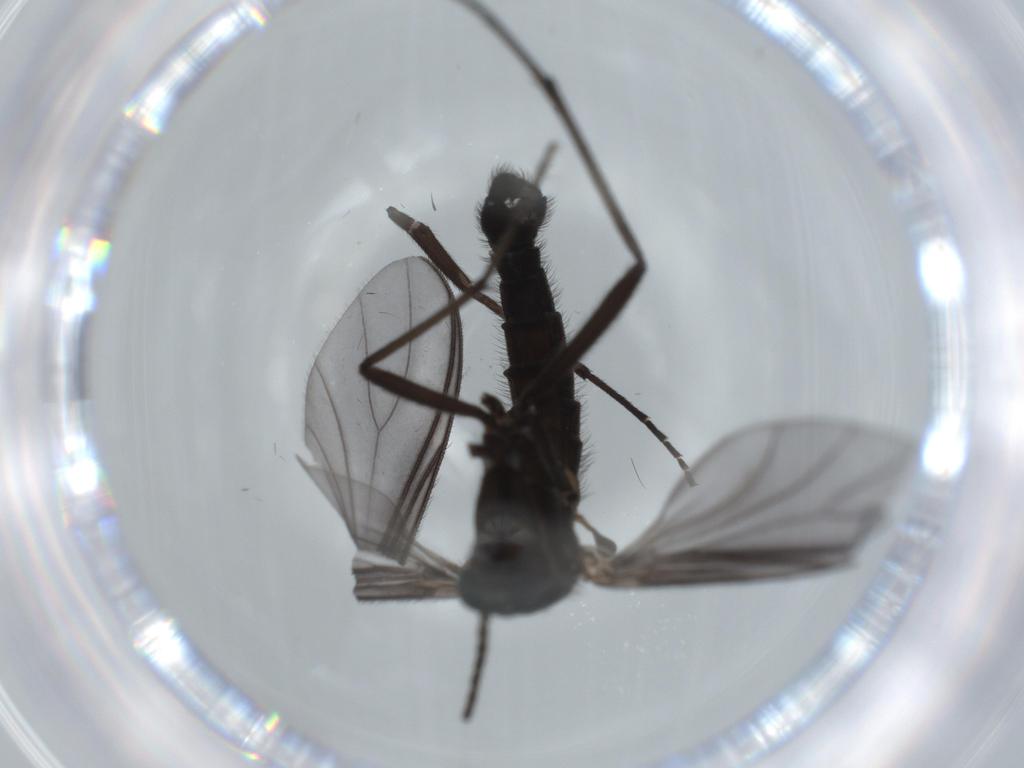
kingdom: Animalia
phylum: Arthropoda
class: Insecta
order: Diptera
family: Cecidomyiidae
